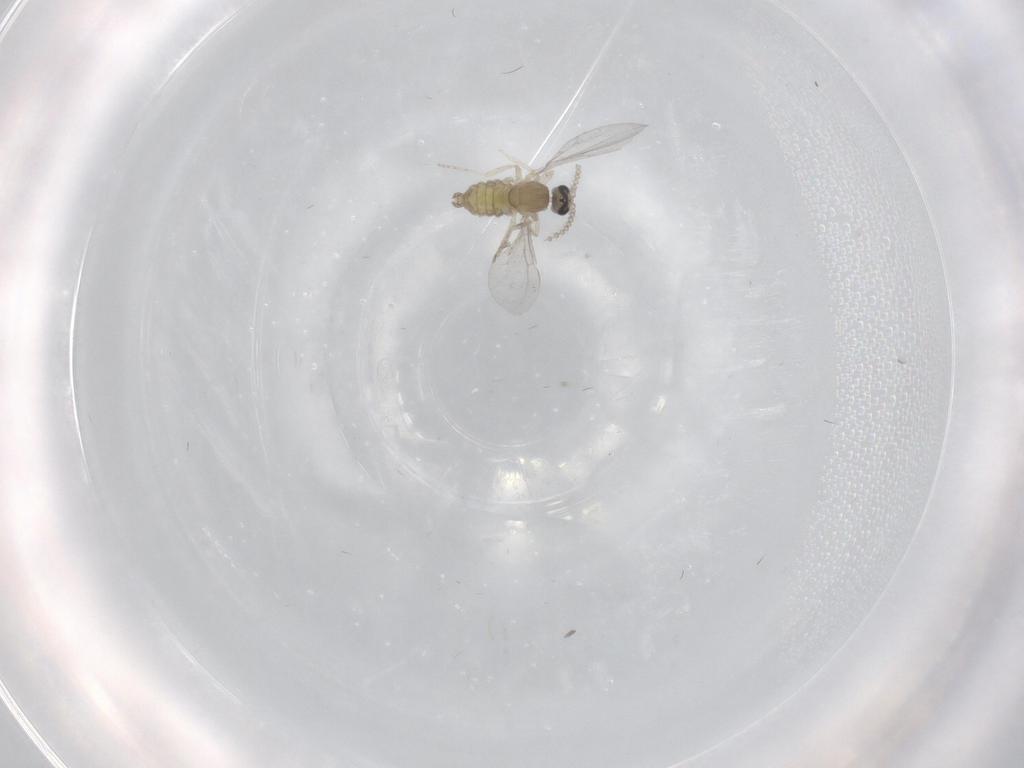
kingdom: Animalia
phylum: Arthropoda
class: Insecta
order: Diptera
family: Cecidomyiidae
